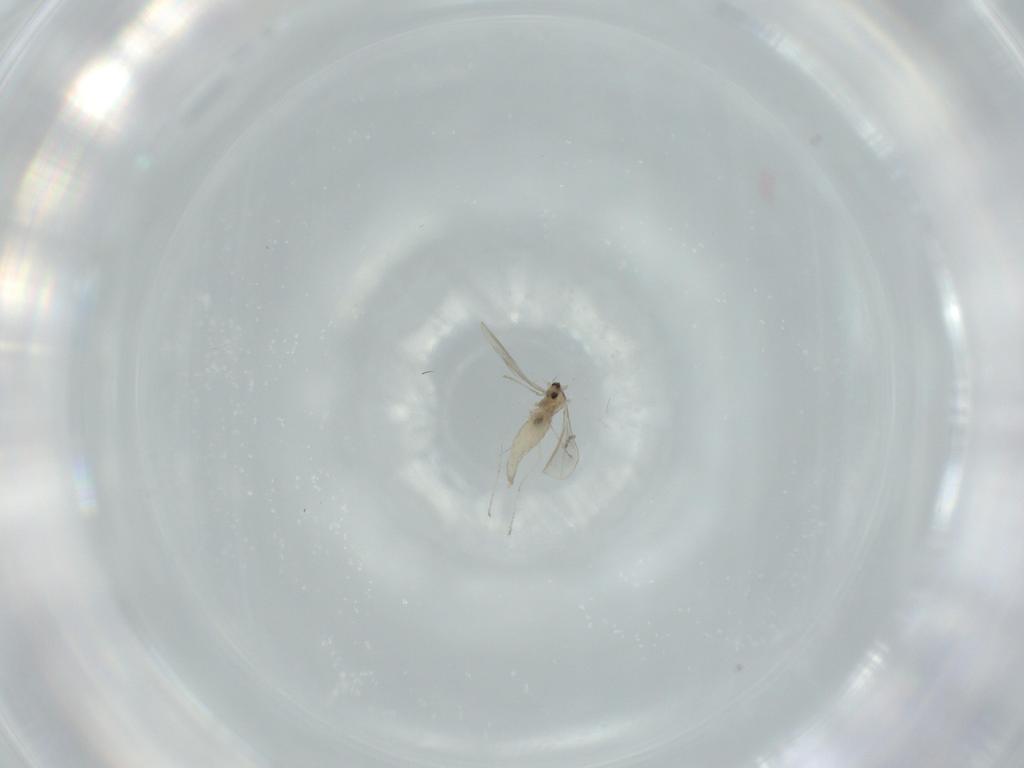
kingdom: Animalia
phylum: Arthropoda
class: Insecta
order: Diptera
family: Cecidomyiidae
